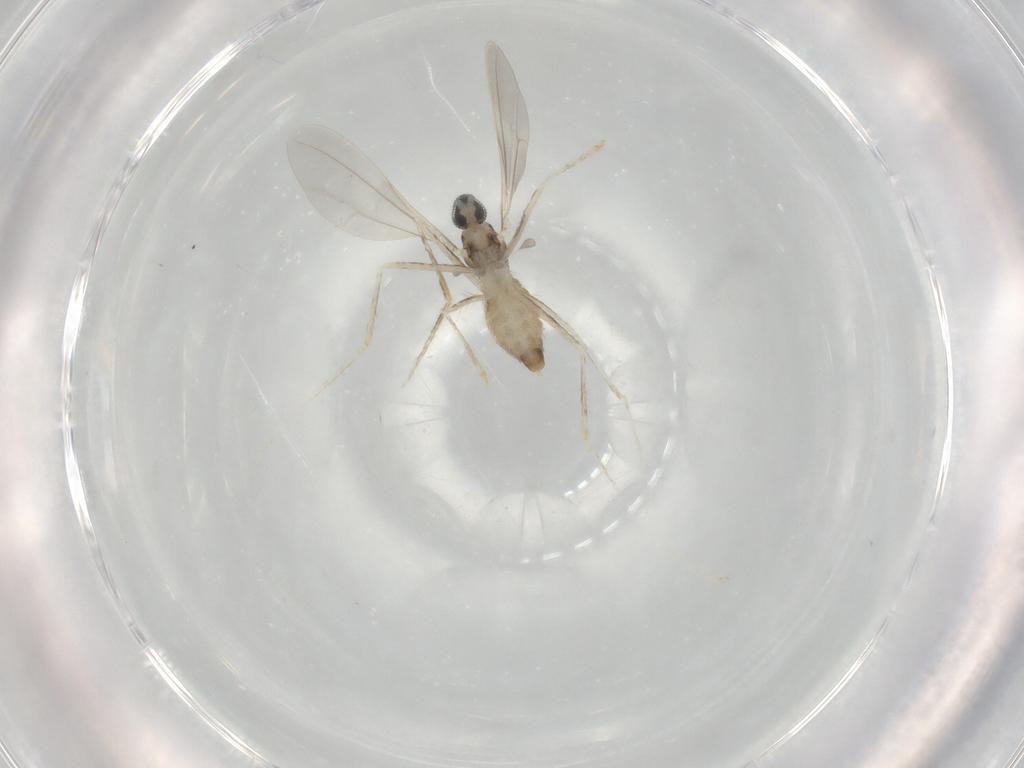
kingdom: Animalia
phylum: Arthropoda
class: Insecta
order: Diptera
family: Cecidomyiidae
